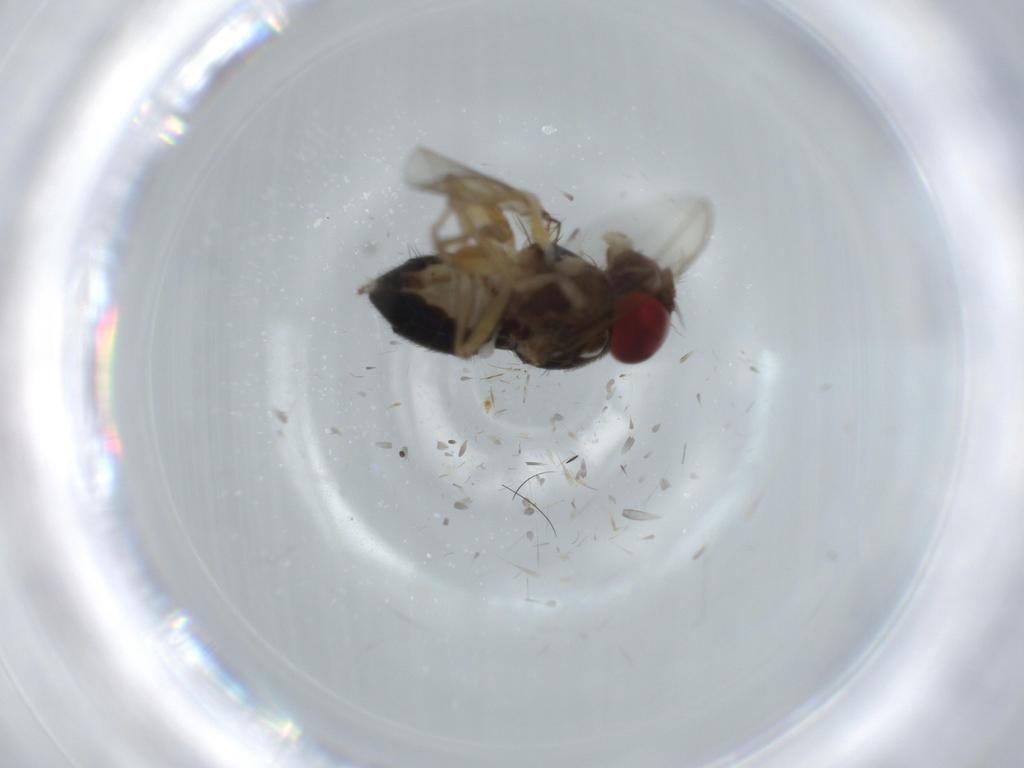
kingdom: Animalia
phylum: Arthropoda
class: Insecta
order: Diptera
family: Drosophilidae
